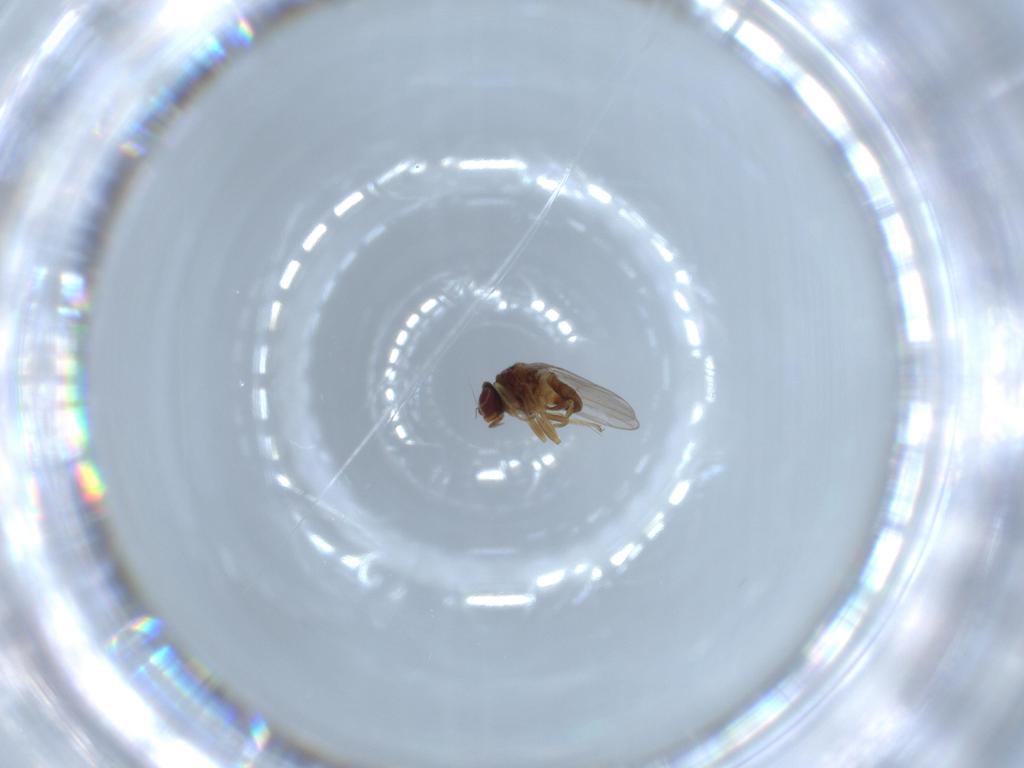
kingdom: Animalia
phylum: Arthropoda
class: Insecta
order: Diptera
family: Chloropidae
